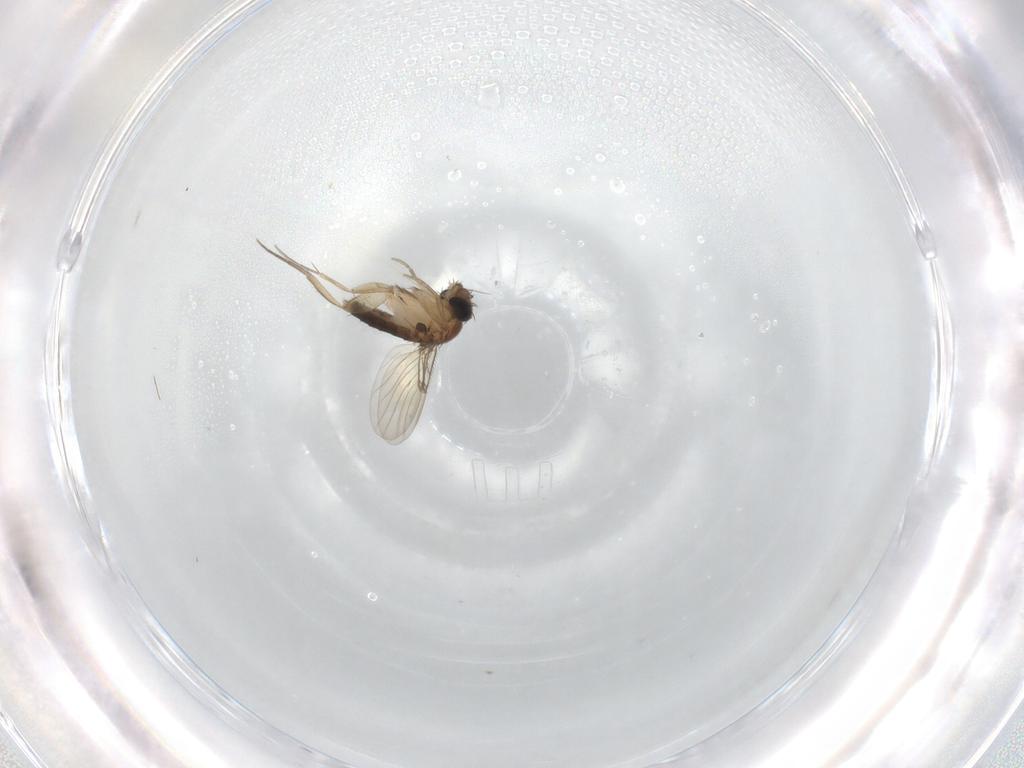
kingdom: Animalia
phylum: Arthropoda
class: Insecta
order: Diptera
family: Phoridae
